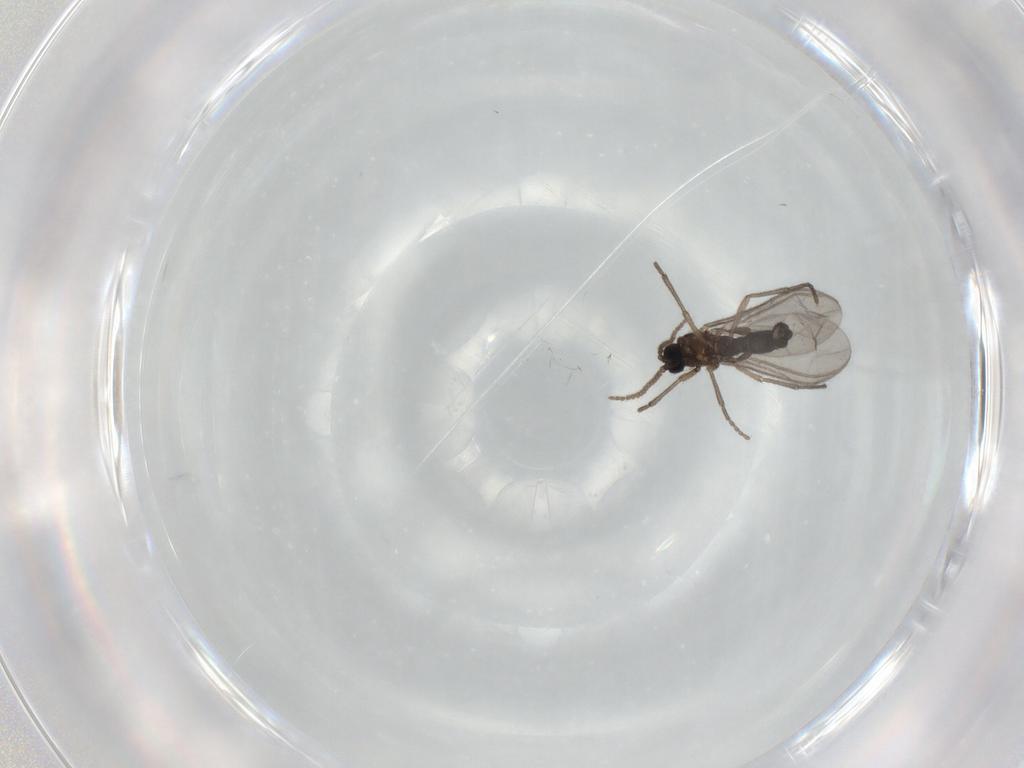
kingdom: Animalia
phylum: Arthropoda
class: Insecta
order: Diptera
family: Sciaridae
